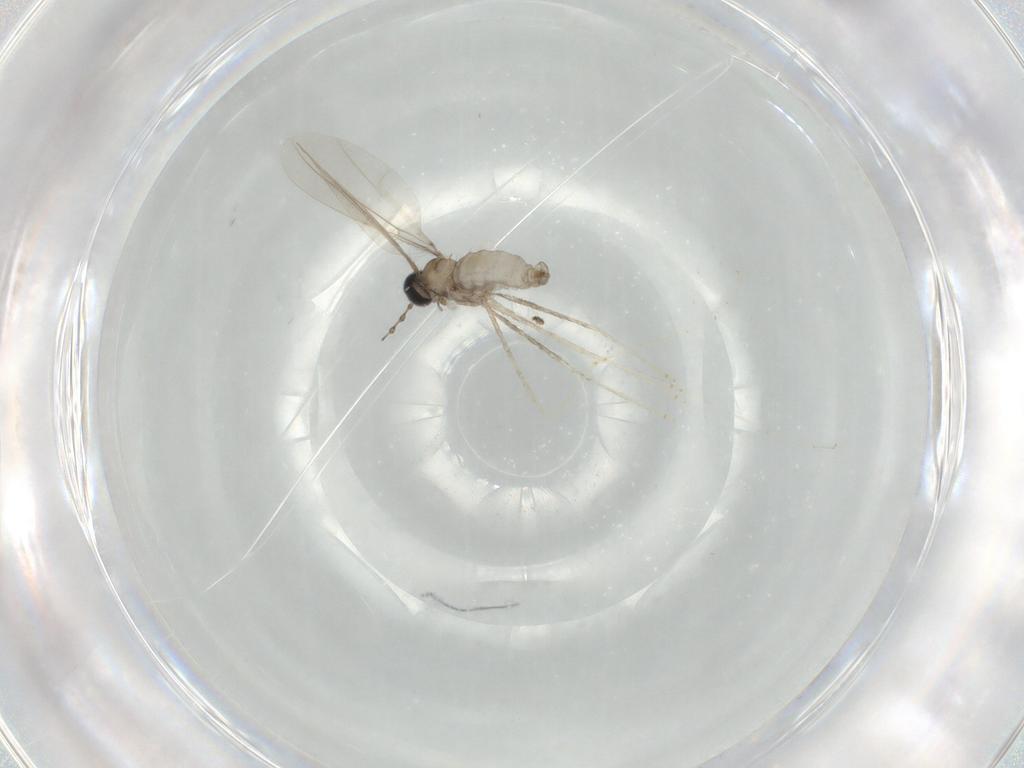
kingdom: Animalia
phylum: Arthropoda
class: Insecta
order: Diptera
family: Cecidomyiidae
